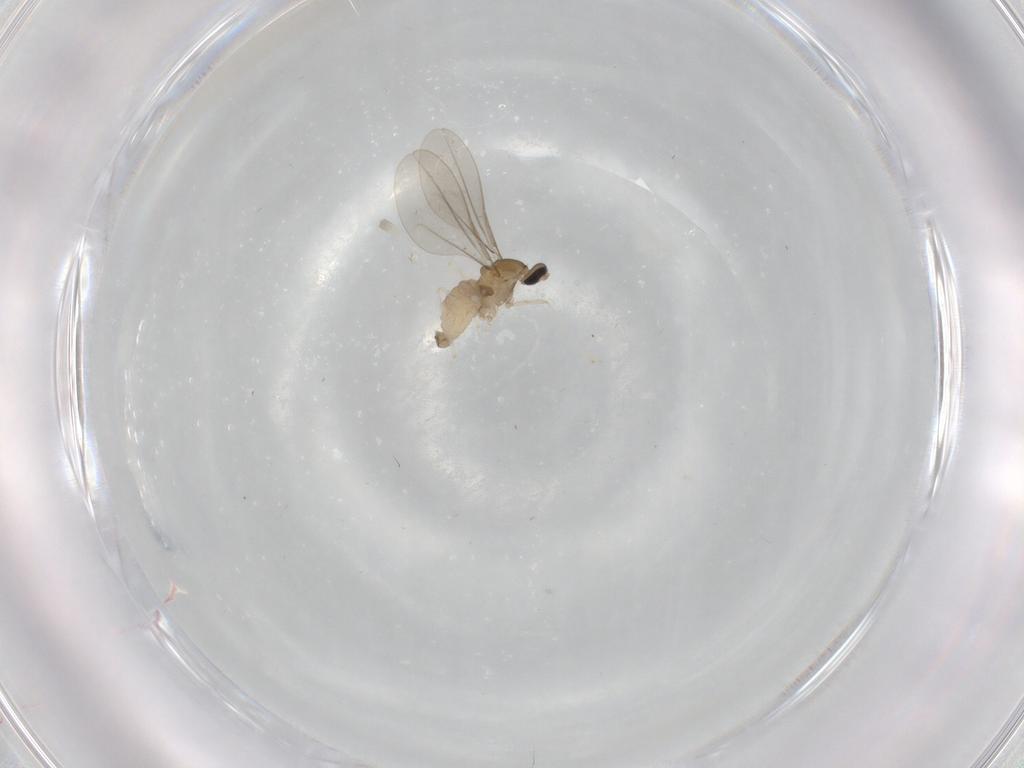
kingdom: Animalia
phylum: Arthropoda
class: Insecta
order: Diptera
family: Cecidomyiidae
